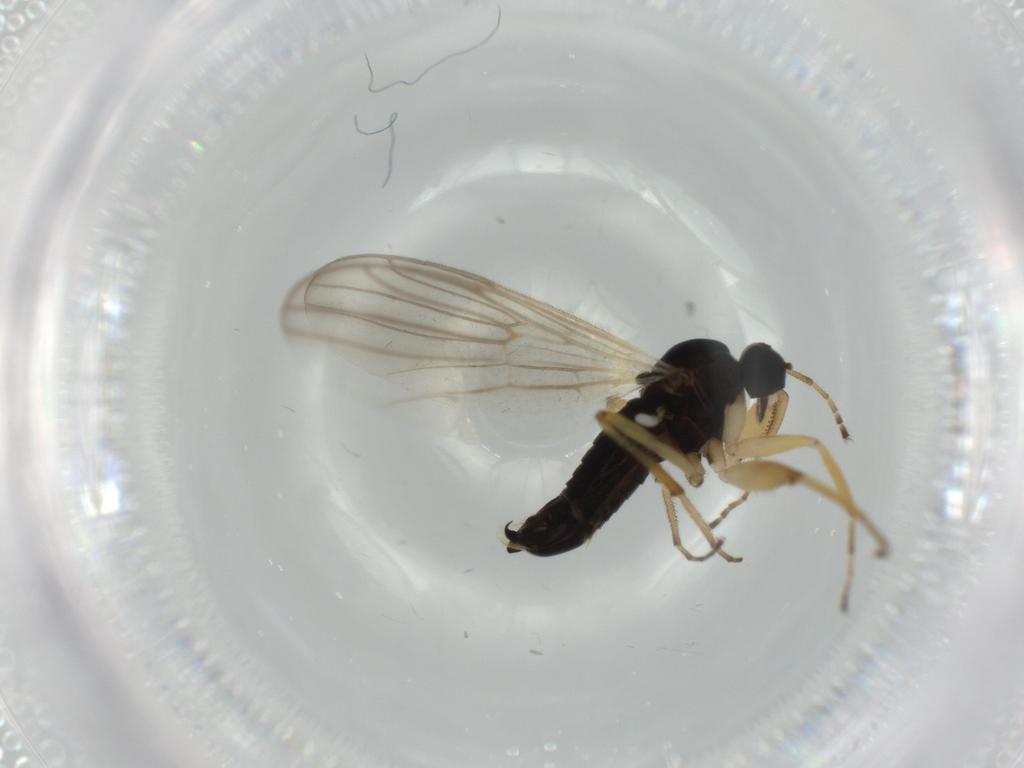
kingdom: Animalia
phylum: Arthropoda
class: Insecta
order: Diptera
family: Cecidomyiidae
